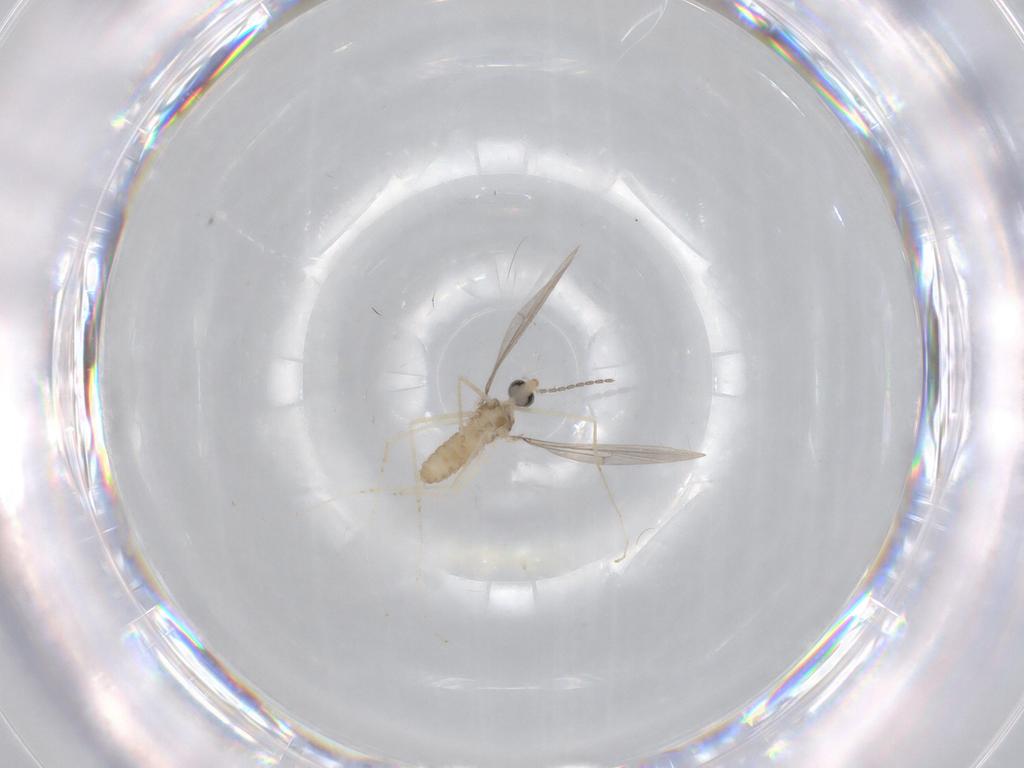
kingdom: Animalia
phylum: Arthropoda
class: Insecta
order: Diptera
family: Cecidomyiidae
